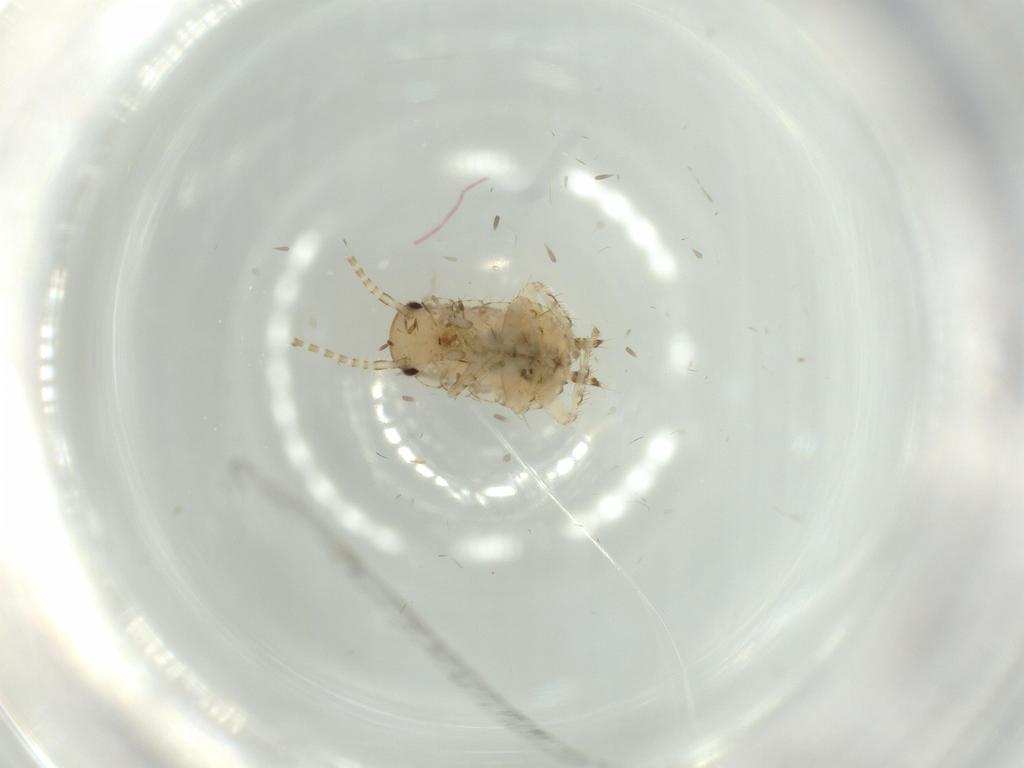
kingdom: Animalia
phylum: Arthropoda
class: Insecta
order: Blattodea
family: Ectobiidae
